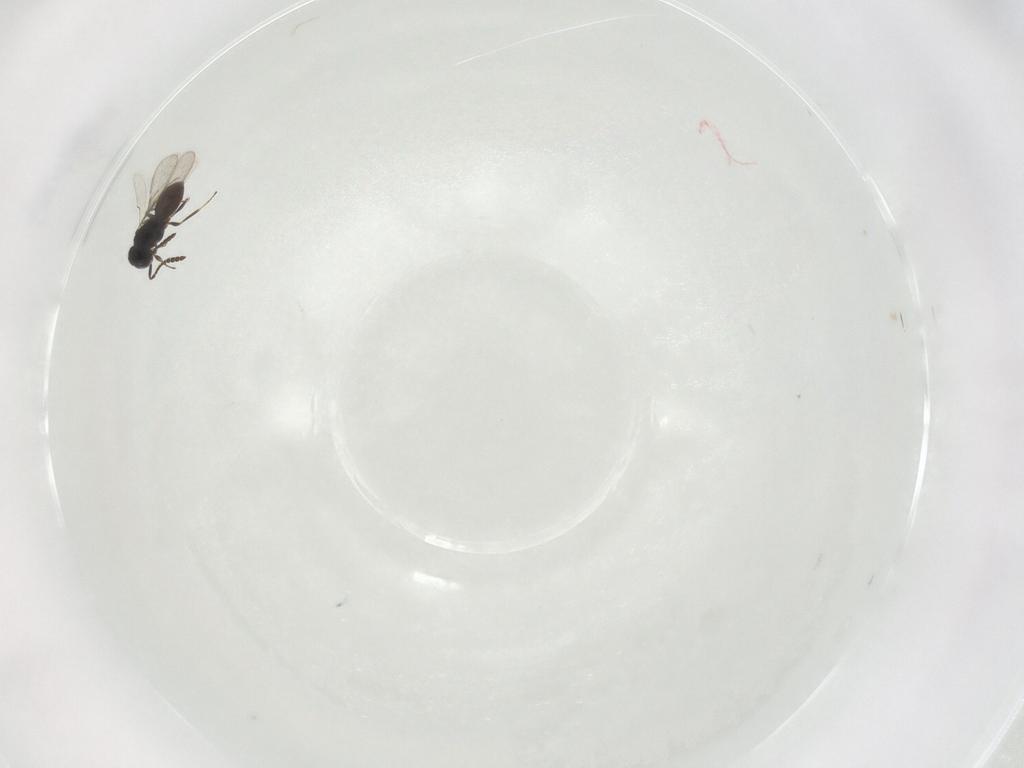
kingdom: Animalia
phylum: Arthropoda
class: Insecta
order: Hymenoptera
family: Scelionidae
